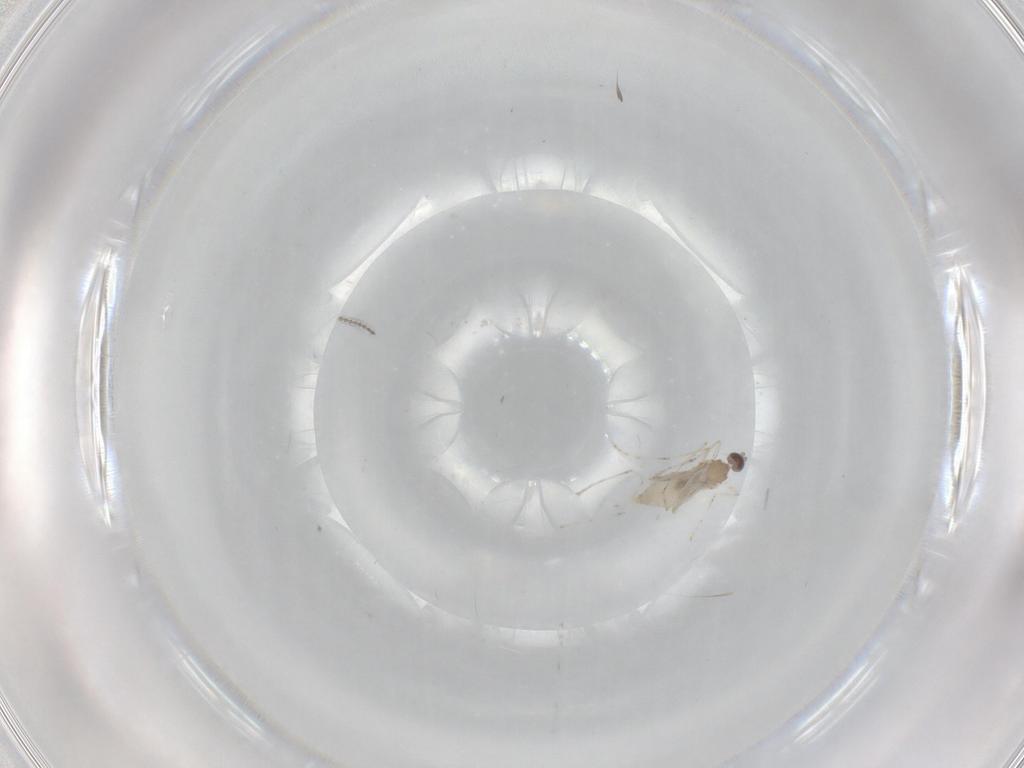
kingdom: Animalia
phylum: Arthropoda
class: Insecta
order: Diptera
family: Cecidomyiidae
